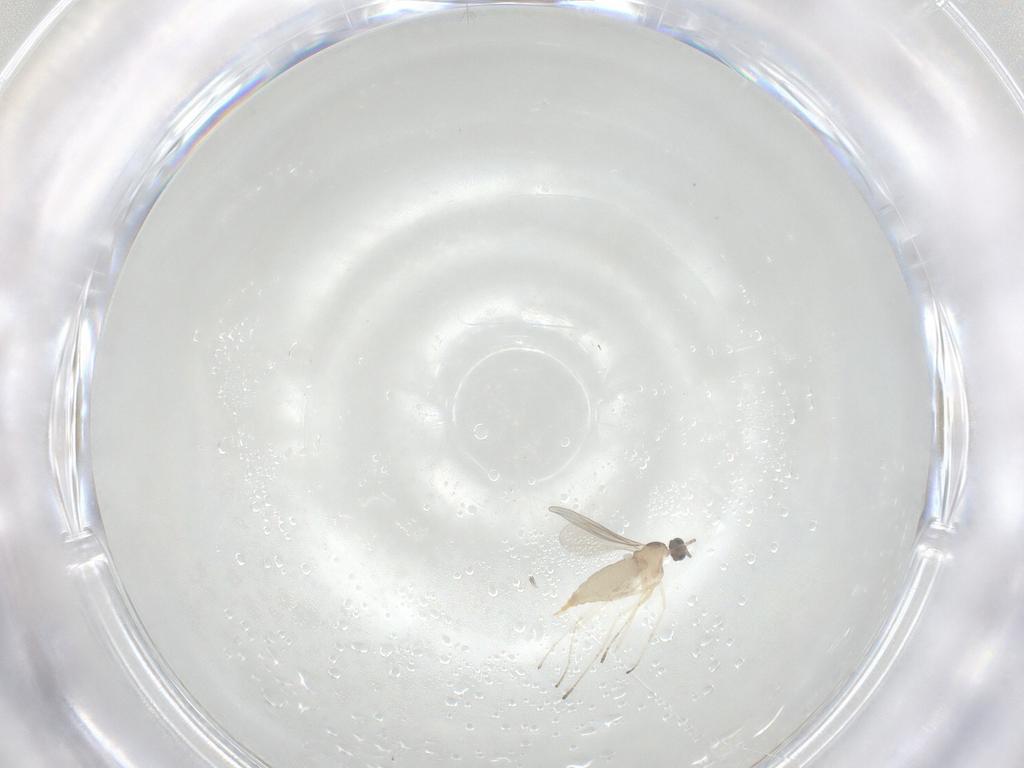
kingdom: Animalia
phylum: Arthropoda
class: Insecta
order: Diptera
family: Cecidomyiidae
